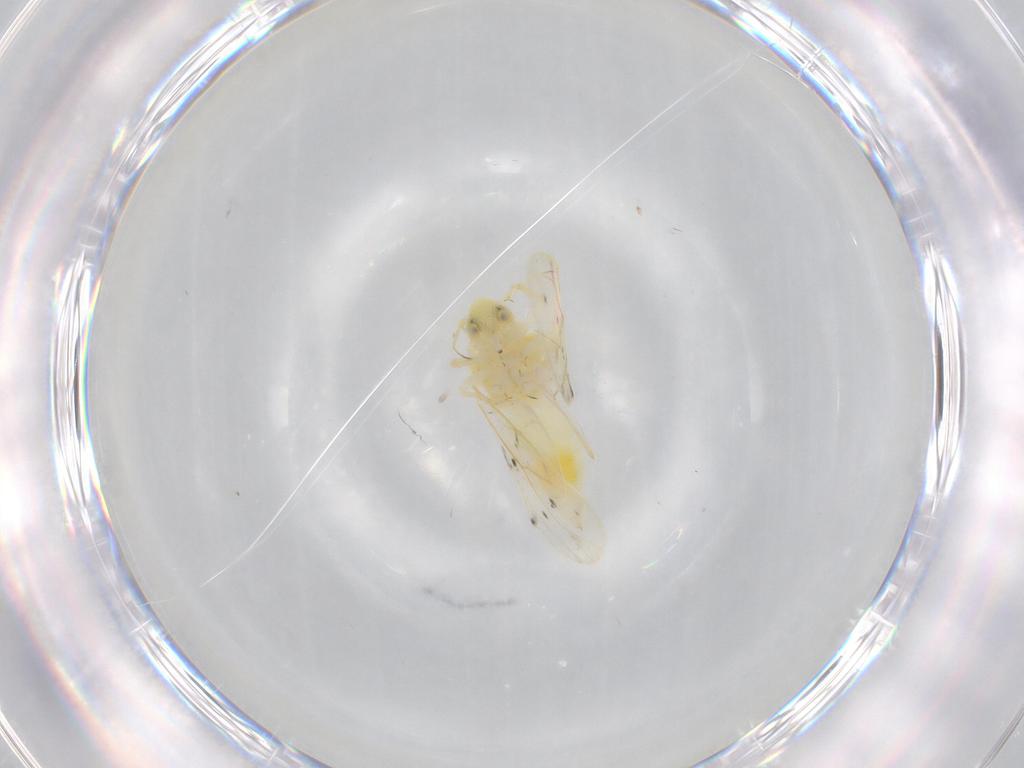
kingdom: Animalia
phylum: Arthropoda
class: Insecta
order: Hemiptera
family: Aleyrodidae
